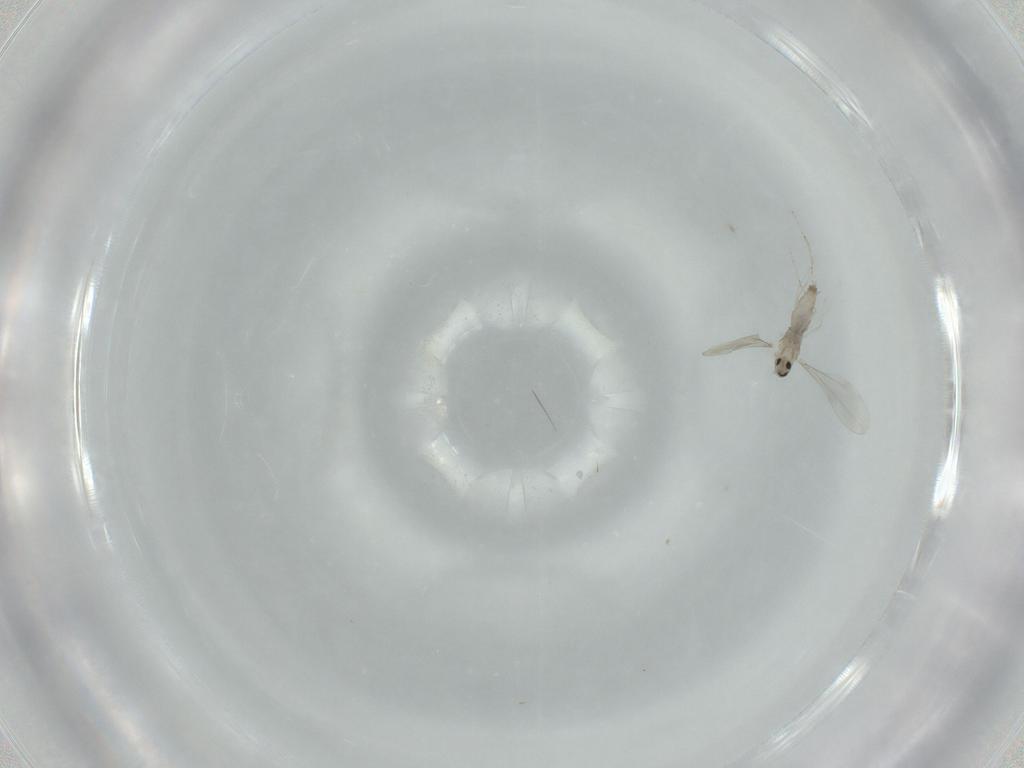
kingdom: Animalia
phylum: Arthropoda
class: Insecta
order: Diptera
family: Cecidomyiidae
